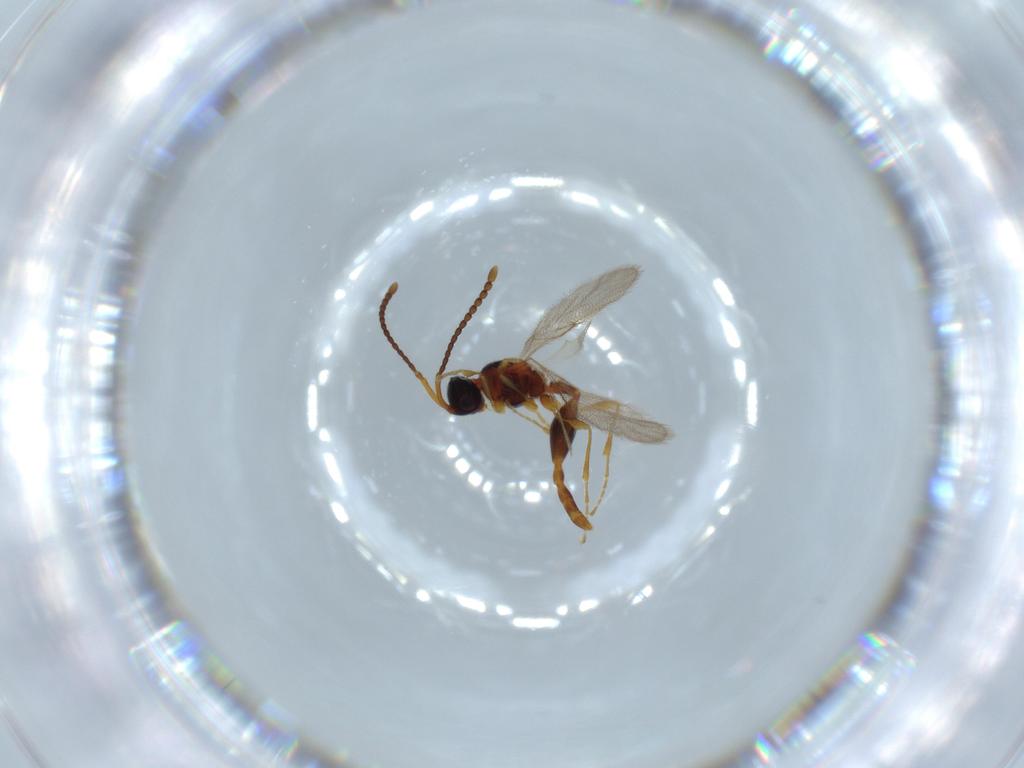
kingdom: Animalia
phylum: Arthropoda
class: Insecta
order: Hymenoptera
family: Diapriidae
